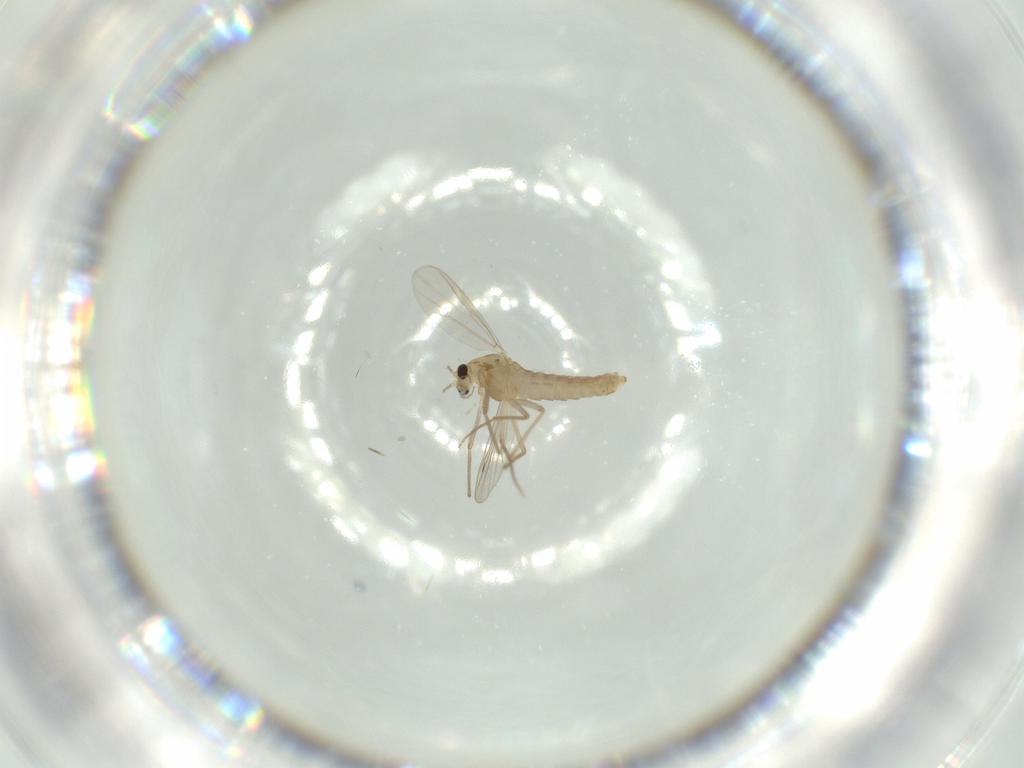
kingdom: Animalia
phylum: Arthropoda
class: Insecta
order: Diptera
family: Chironomidae
